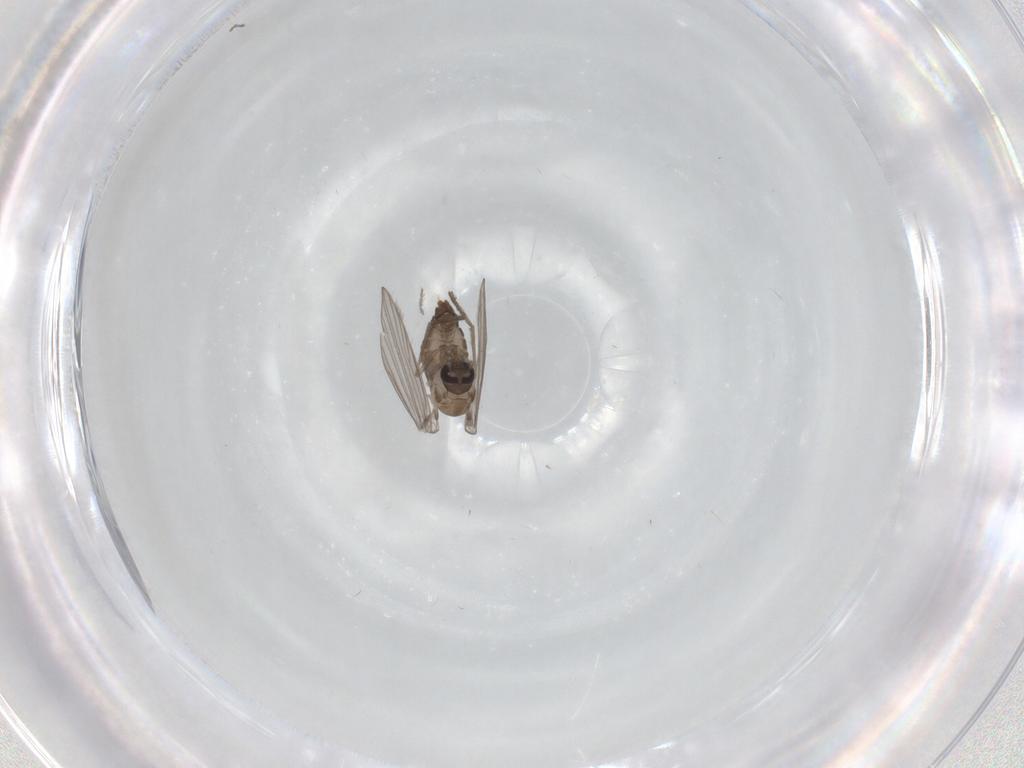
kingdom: Animalia
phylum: Arthropoda
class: Insecta
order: Diptera
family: Psychodidae
